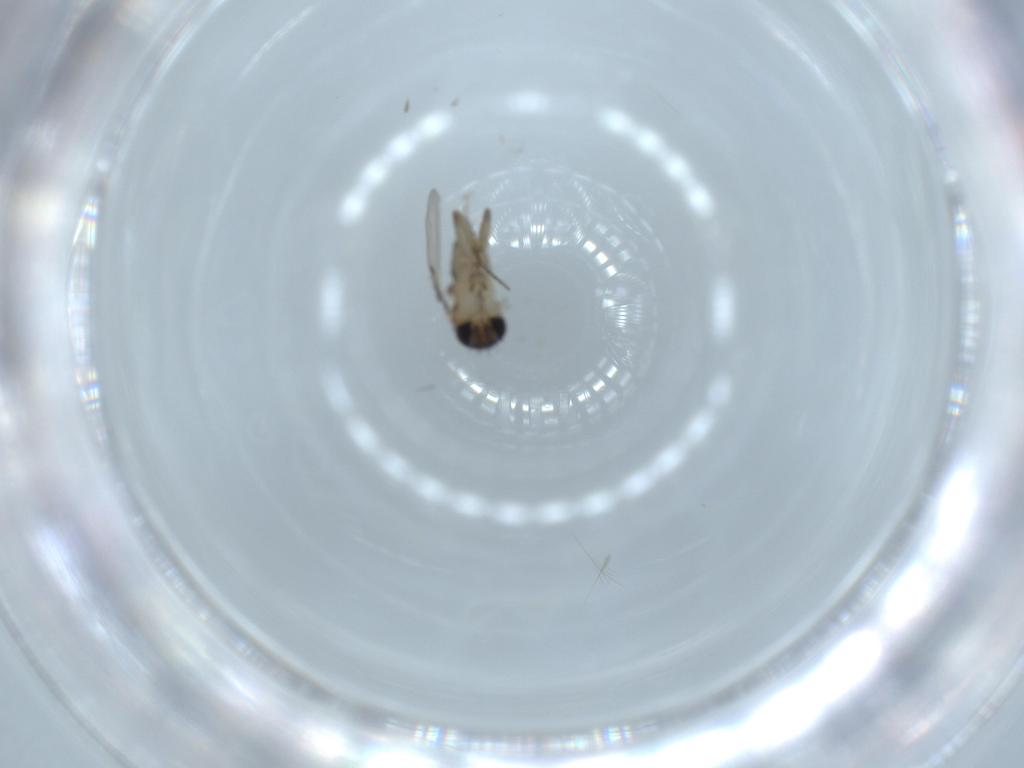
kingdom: Animalia
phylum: Arthropoda
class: Insecta
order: Diptera
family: Phoridae
